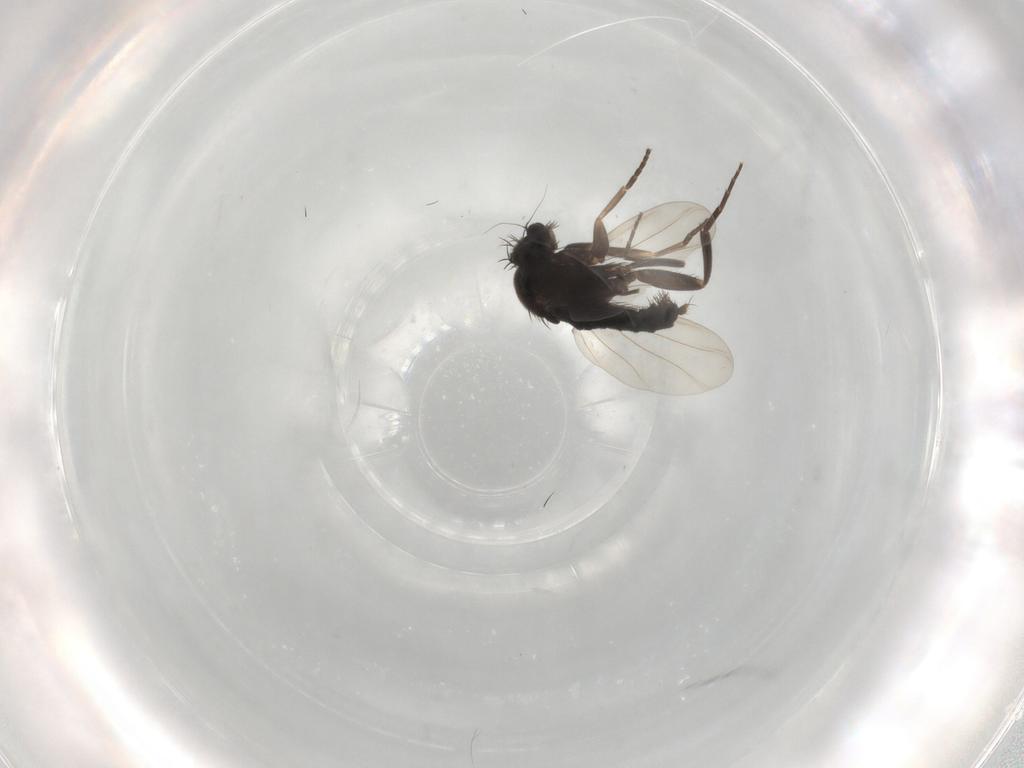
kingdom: Animalia
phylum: Arthropoda
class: Insecta
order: Diptera
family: Phoridae
